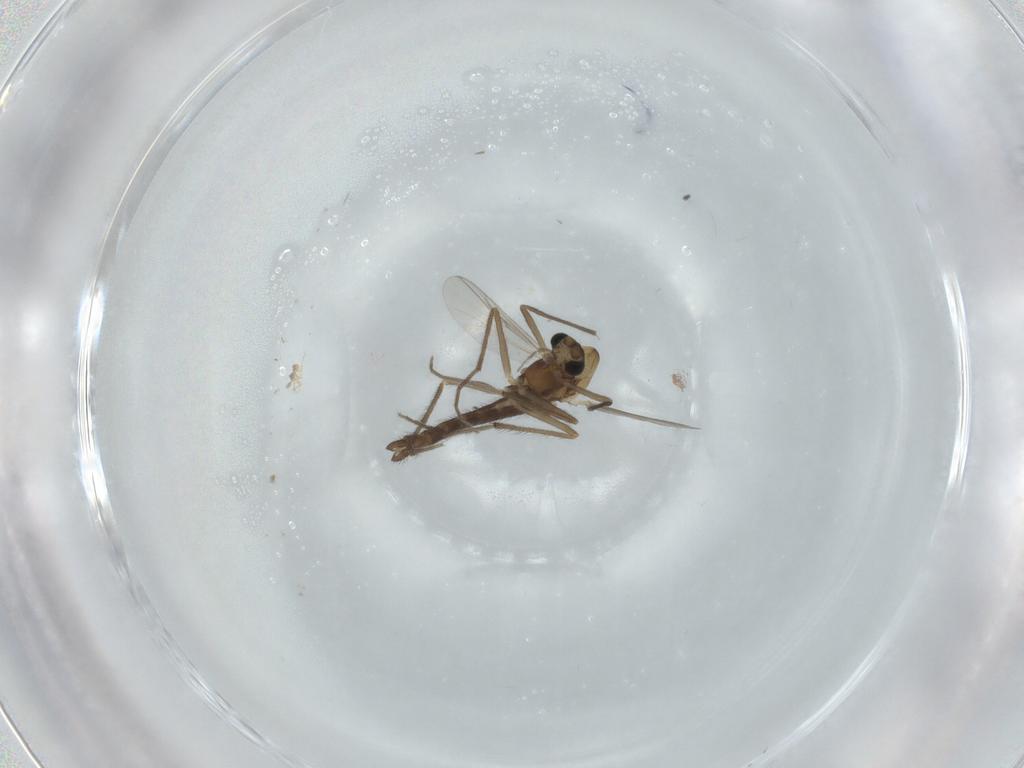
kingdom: Animalia
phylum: Arthropoda
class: Insecta
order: Diptera
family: Chironomidae
